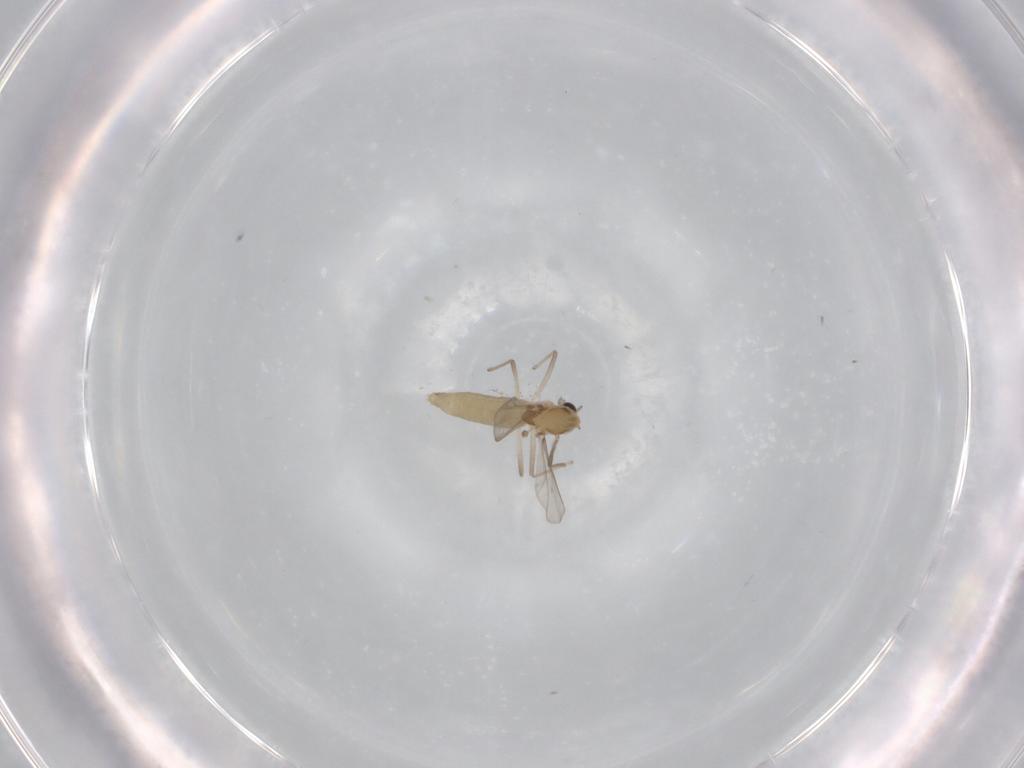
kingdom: Animalia
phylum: Arthropoda
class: Insecta
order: Diptera
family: Chironomidae
